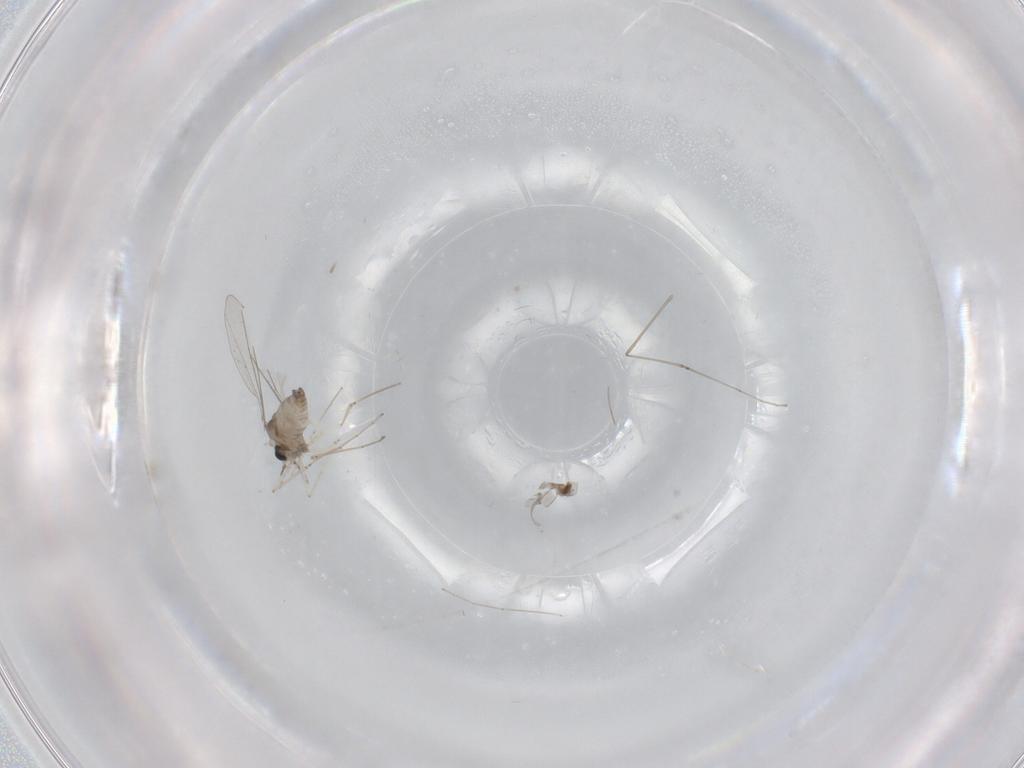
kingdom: Animalia
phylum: Arthropoda
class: Insecta
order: Diptera
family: Cecidomyiidae
